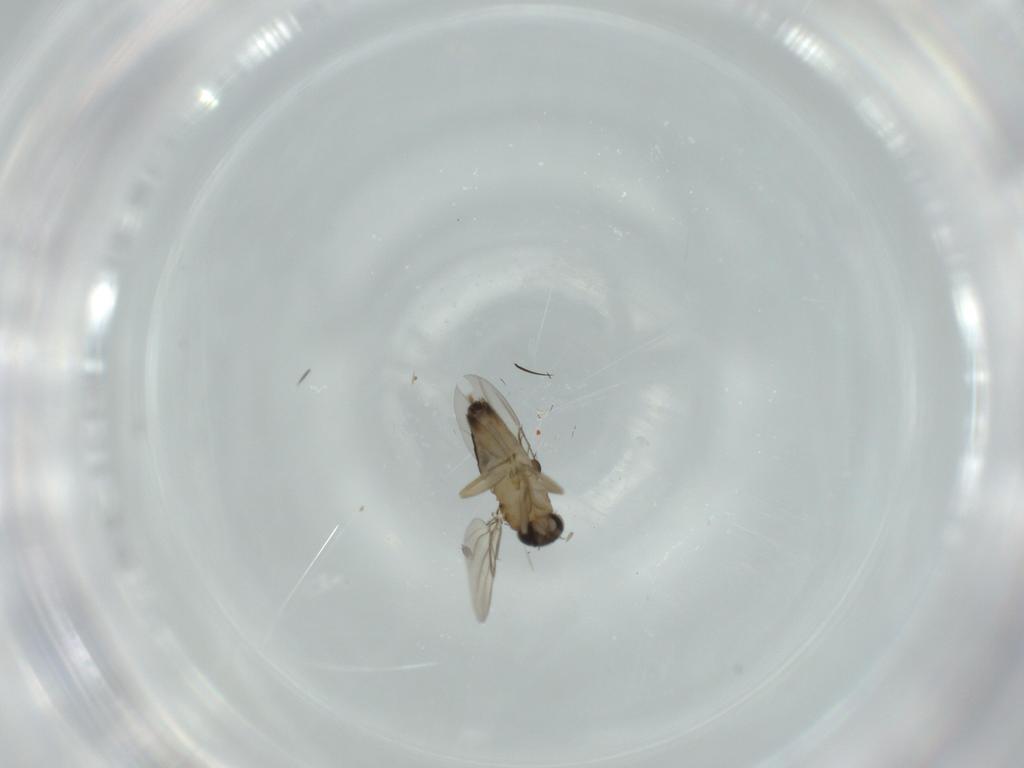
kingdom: Animalia
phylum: Arthropoda
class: Insecta
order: Diptera
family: Phoridae
